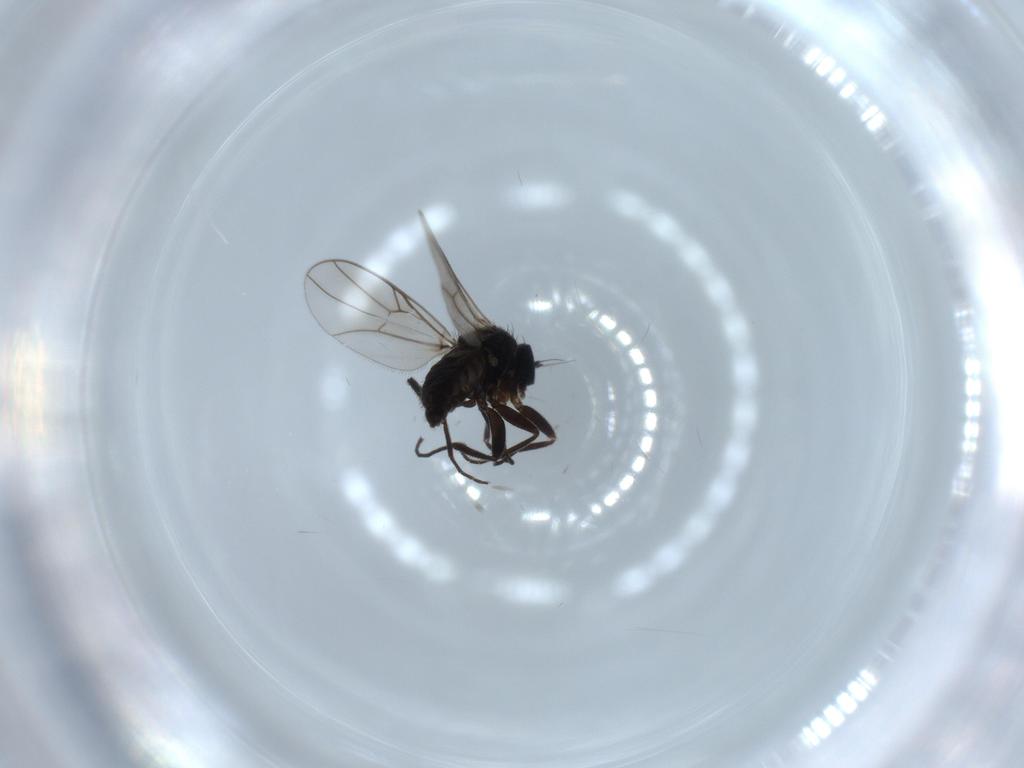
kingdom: Animalia
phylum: Arthropoda
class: Insecta
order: Diptera
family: Hybotidae
